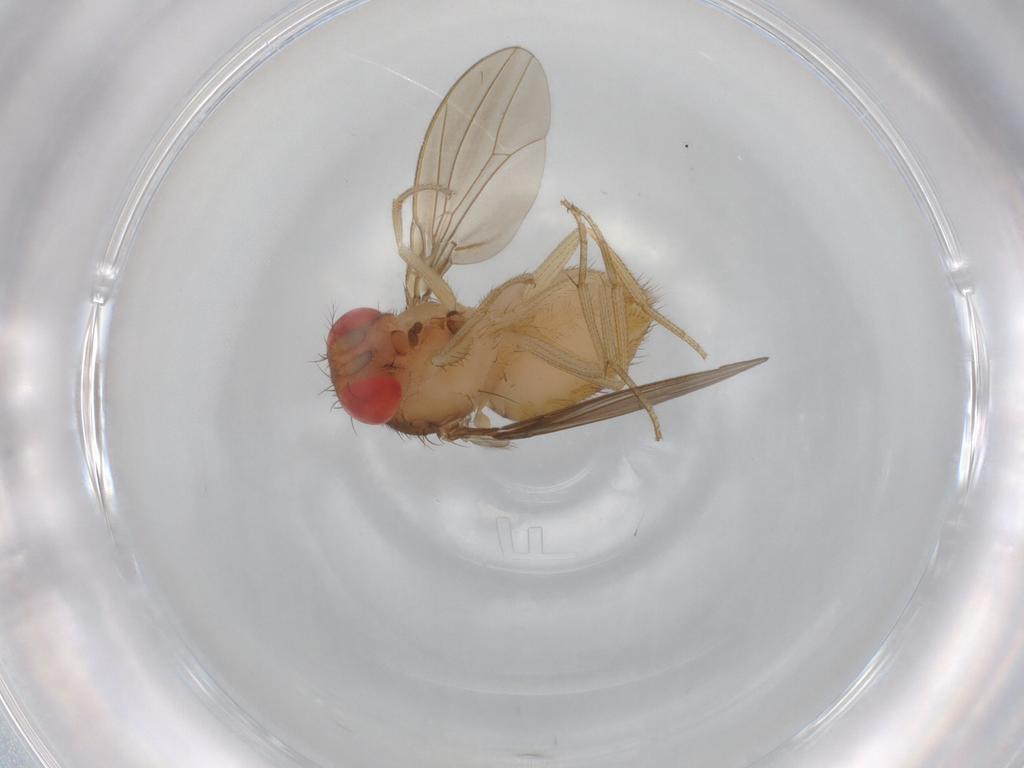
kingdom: Animalia
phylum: Arthropoda
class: Insecta
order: Diptera
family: Drosophilidae
